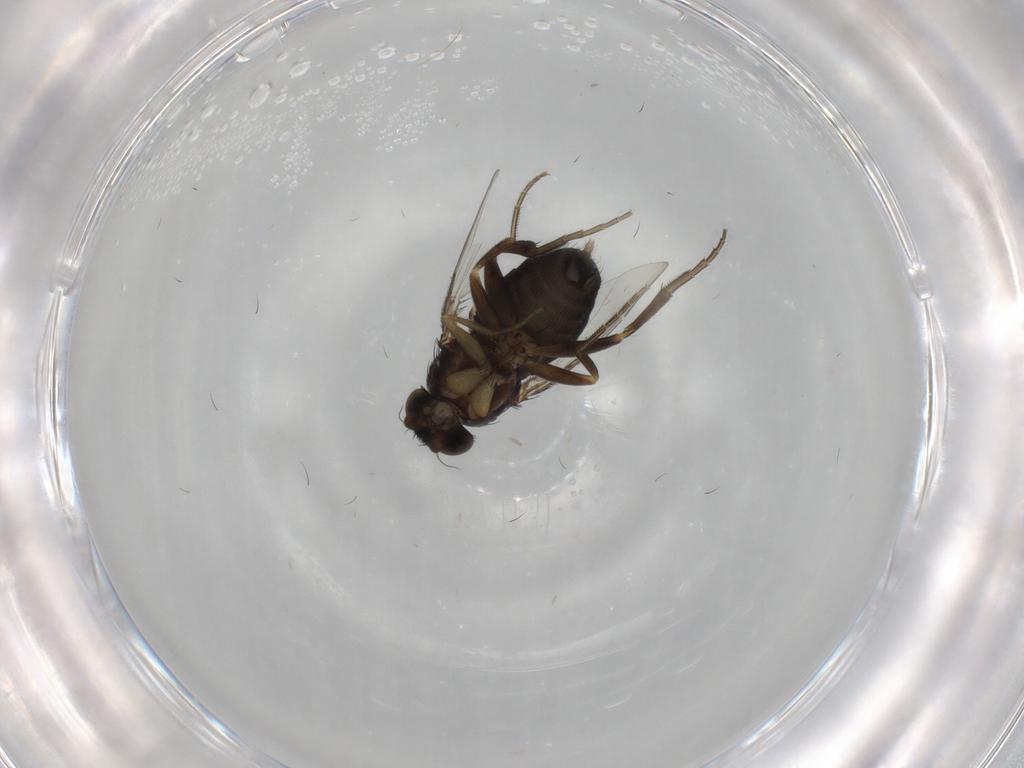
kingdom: Animalia
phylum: Arthropoda
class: Insecta
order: Diptera
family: Phoridae
